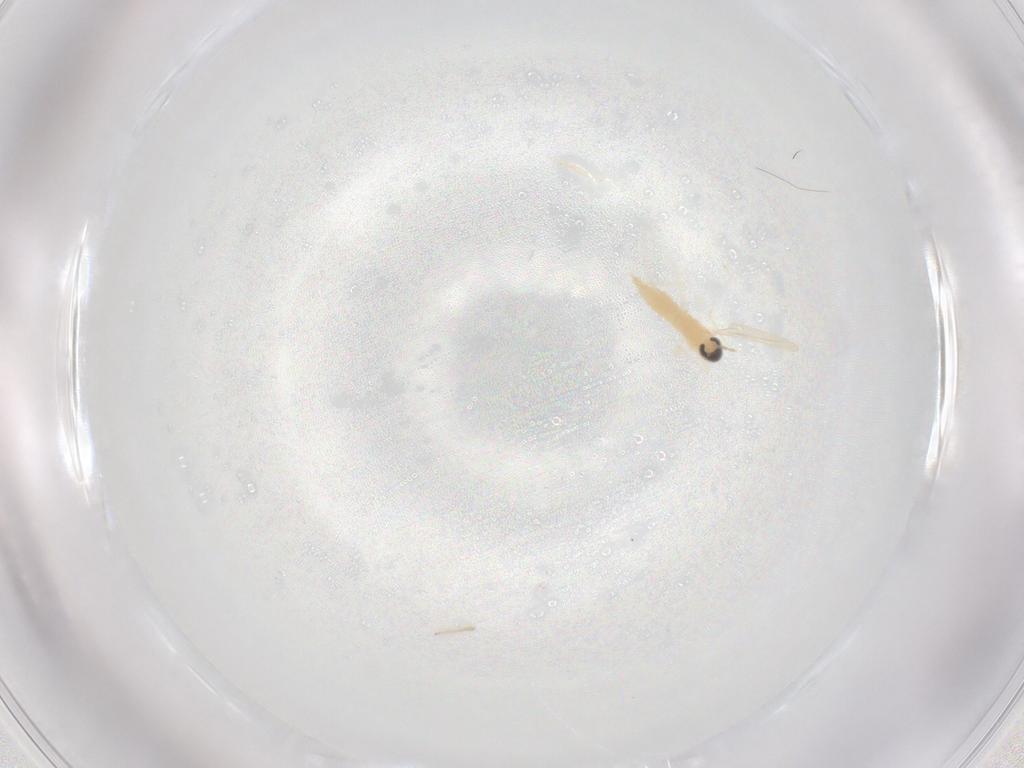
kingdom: Animalia
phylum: Arthropoda
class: Insecta
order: Diptera
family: Cecidomyiidae
